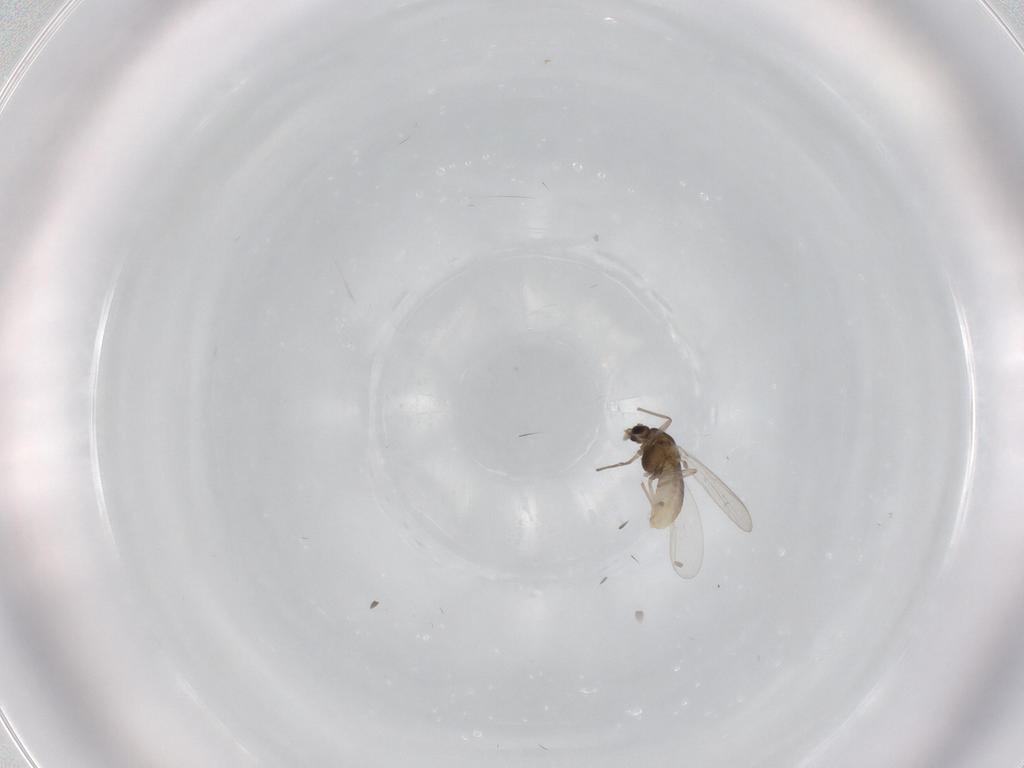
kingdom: Animalia
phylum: Arthropoda
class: Insecta
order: Diptera
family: Chironomidae
